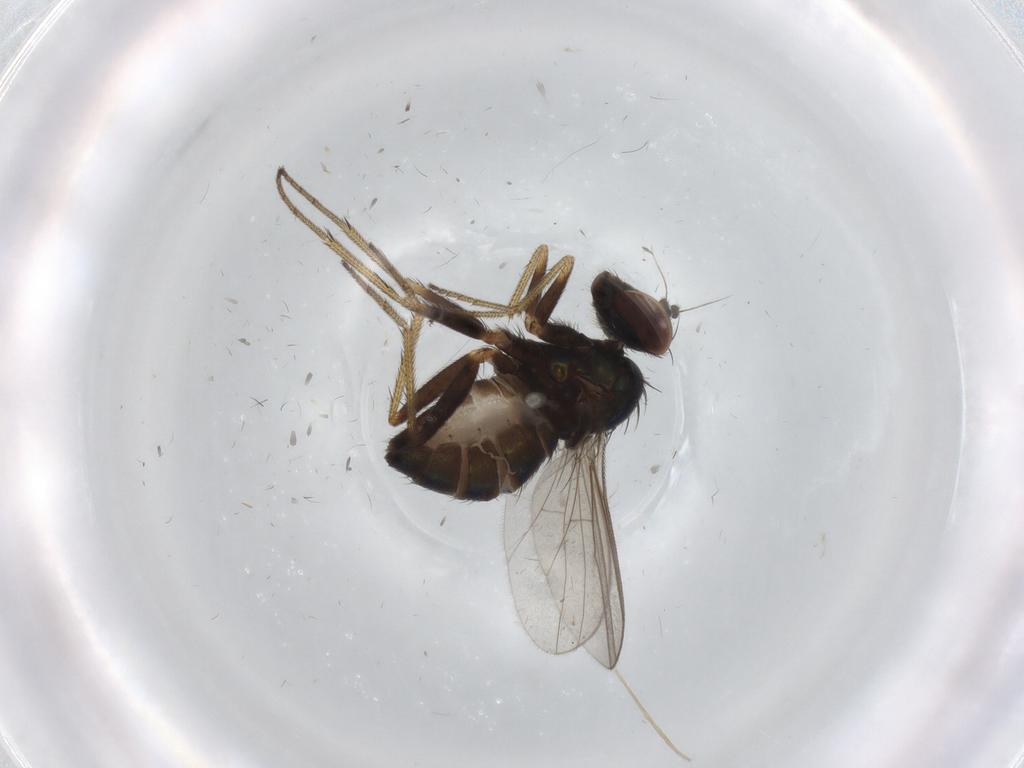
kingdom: Animalia
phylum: Arthropoda
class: Insecta
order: Diptera
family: Dolichopodidae
